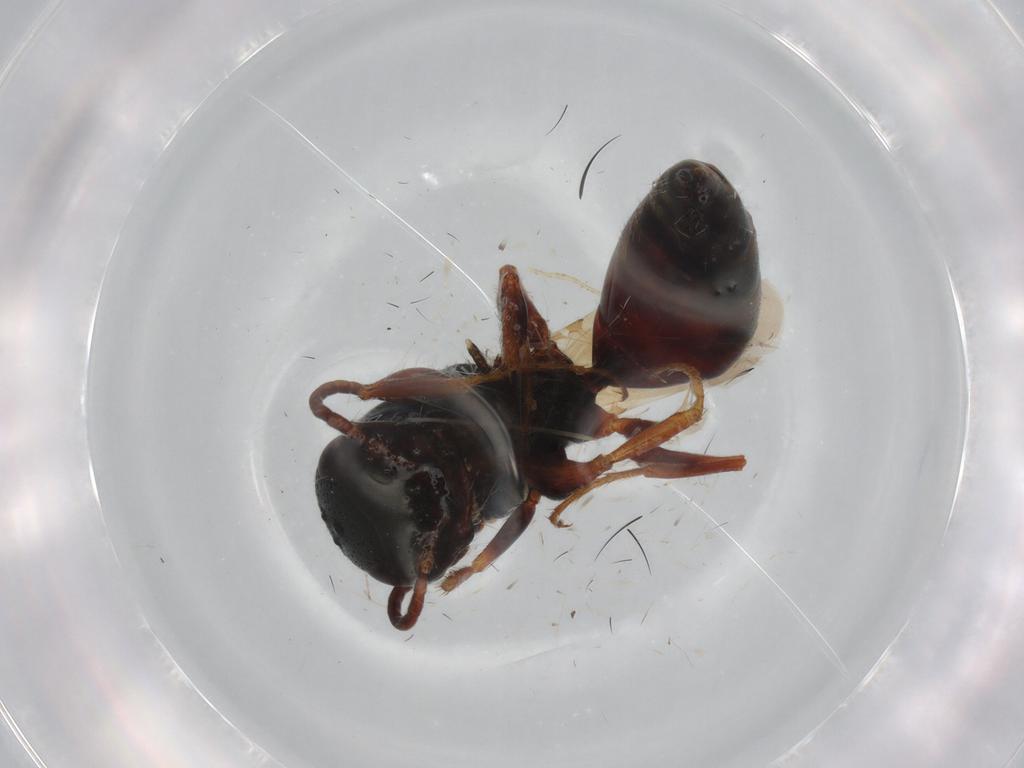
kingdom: Animalia
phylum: Arthropoda
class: Insecta
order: Hymenoptera
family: Bethylidae
